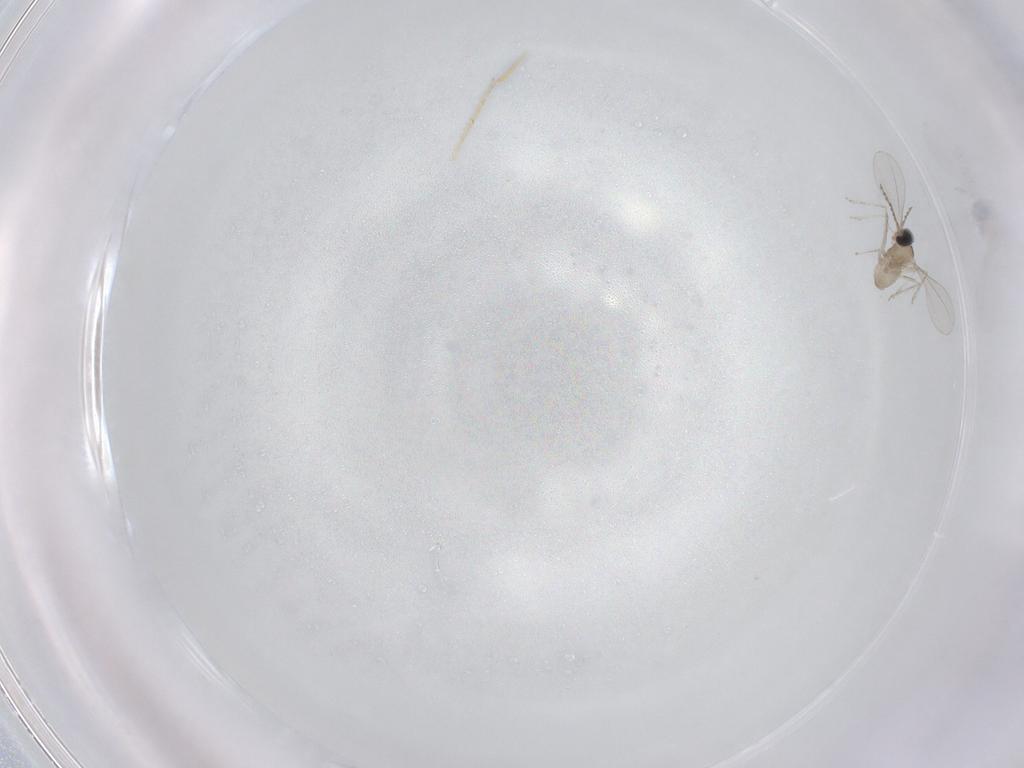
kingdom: Animalia
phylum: Arthropoda
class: Insecta
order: Diptera
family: Cecidomyiidae
